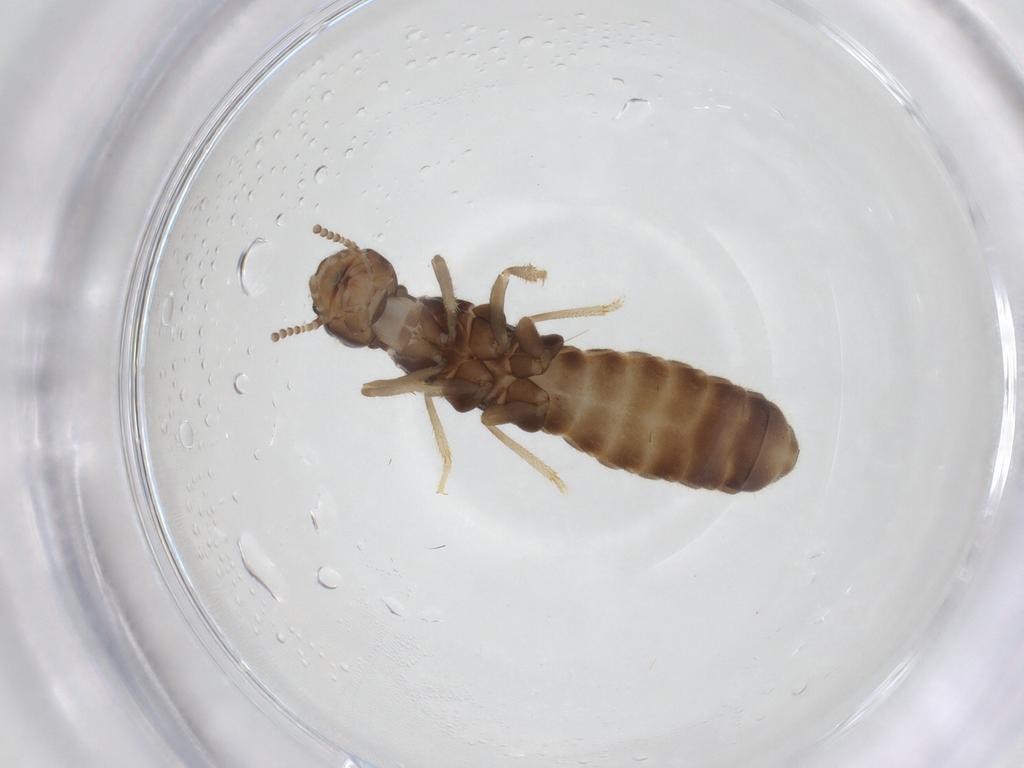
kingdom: Animalia
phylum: Arthropoda
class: Insecta
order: Blattodea
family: Rhinotermitidae
